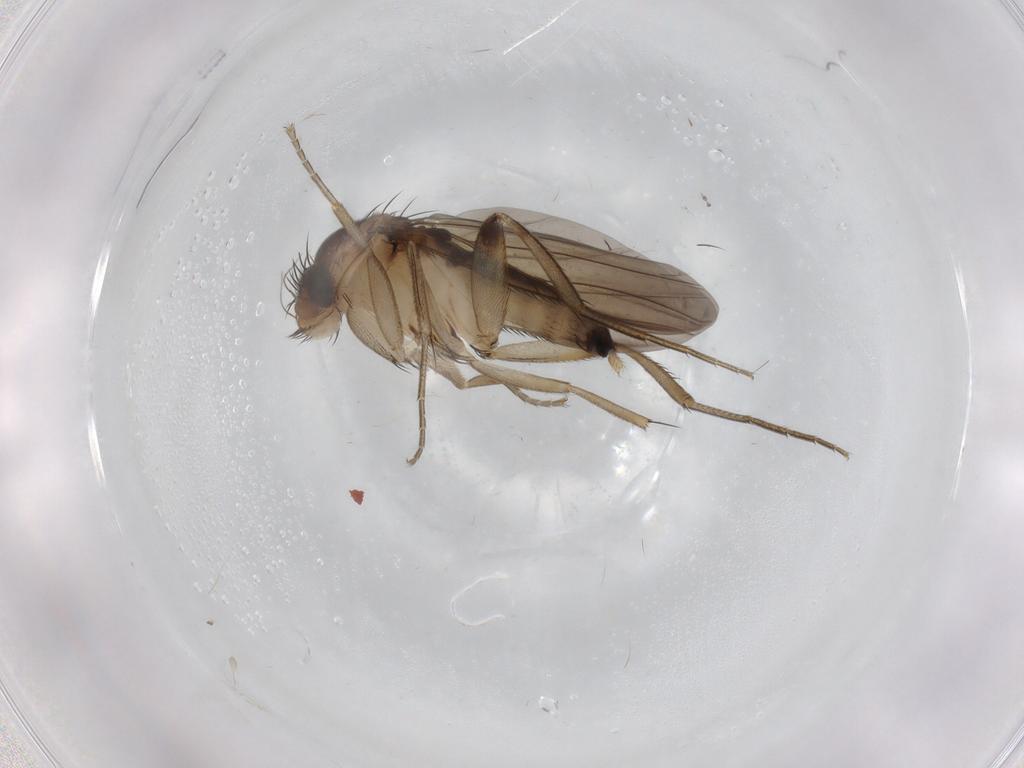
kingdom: Animalia
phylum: Arthropoda
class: Insecta
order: Diptera
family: Phoridae
